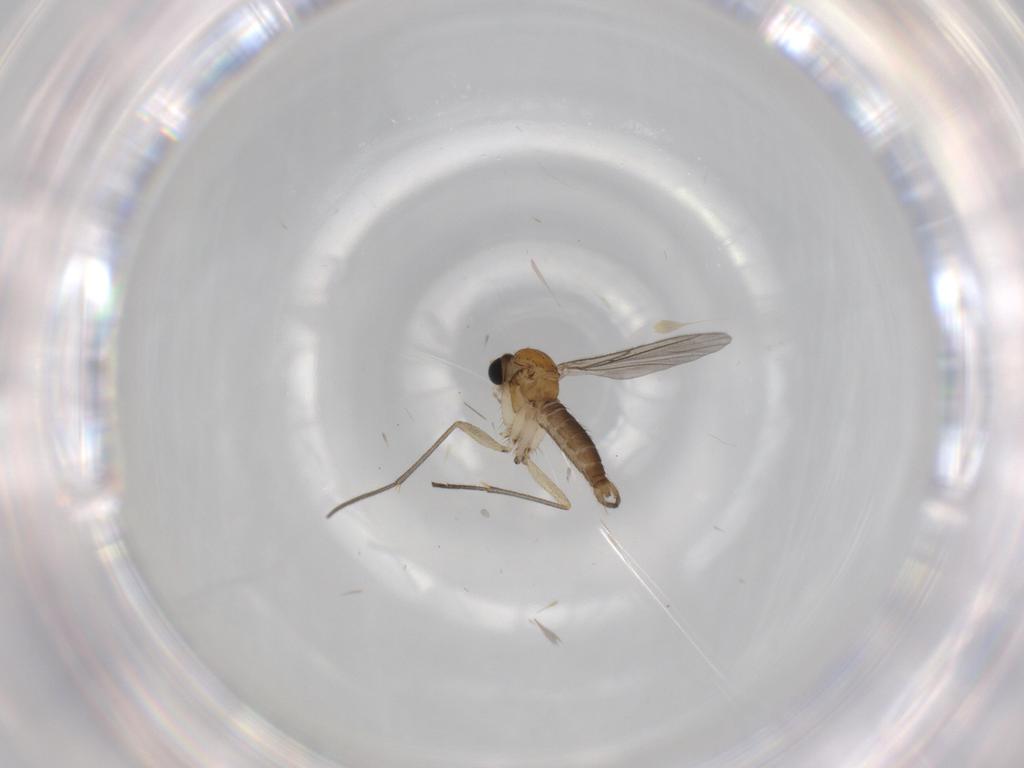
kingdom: Animalia
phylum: Arthropoda
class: Insecta
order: Diptera
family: Sciaridae
